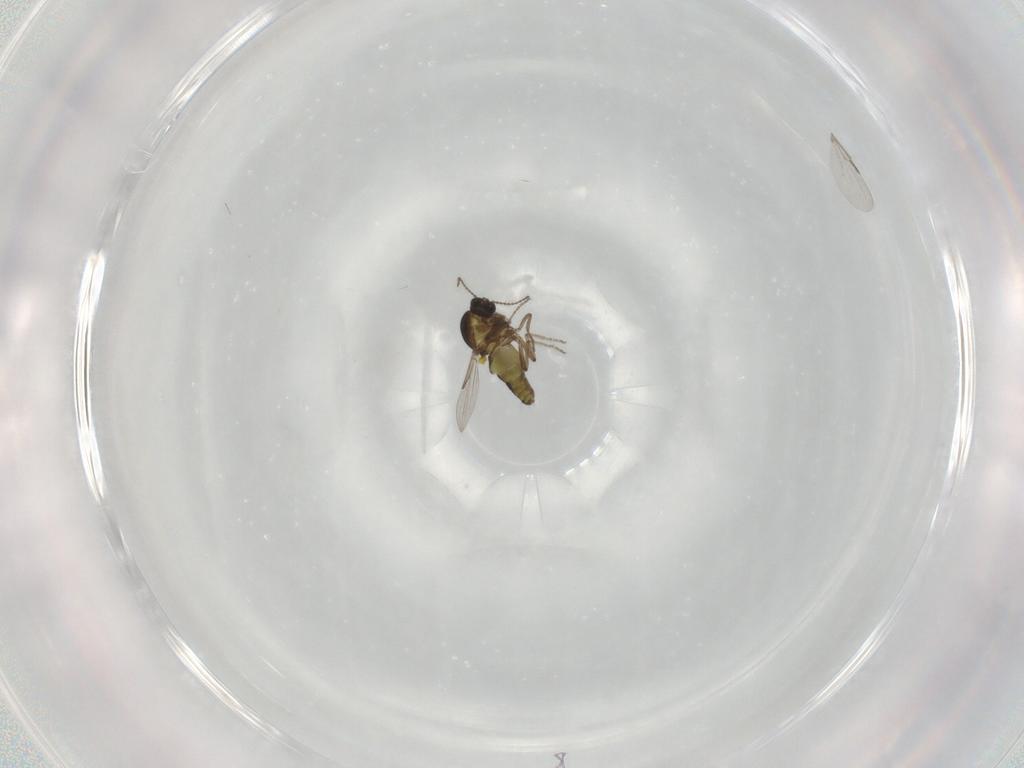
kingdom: Animalia
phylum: Arthropoda
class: Insecta
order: Diptera
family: Ceratopogonidae
